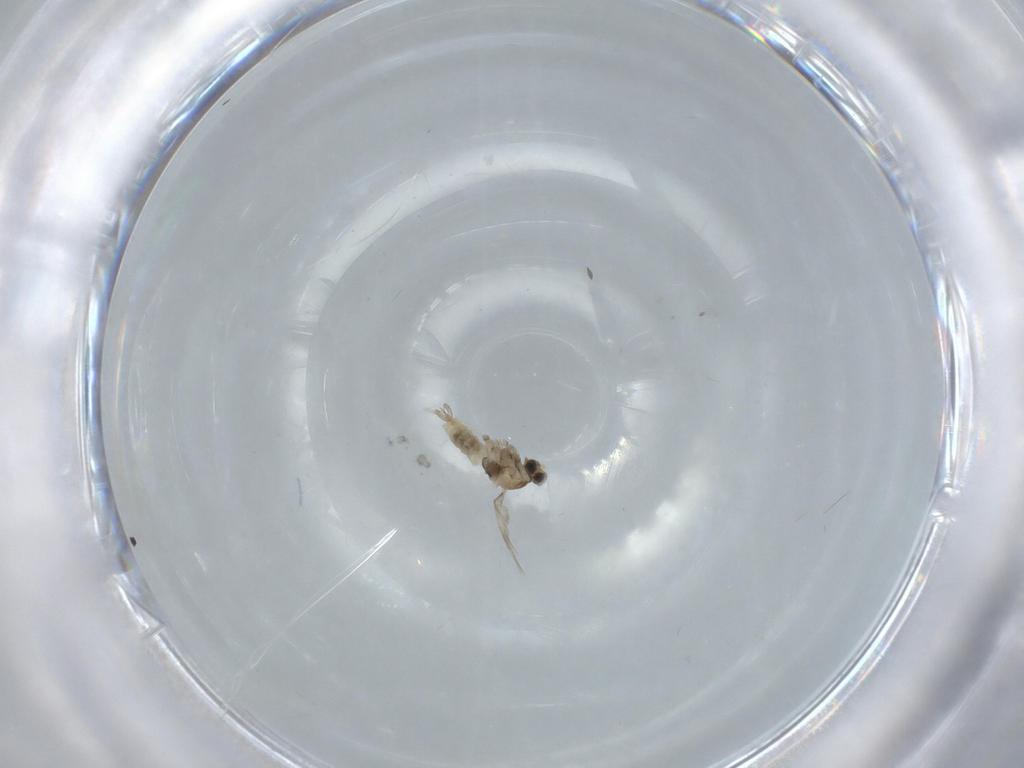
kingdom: Animalia
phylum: Arthropoda
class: Insecta
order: Diptera
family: Cecidomyiidae
